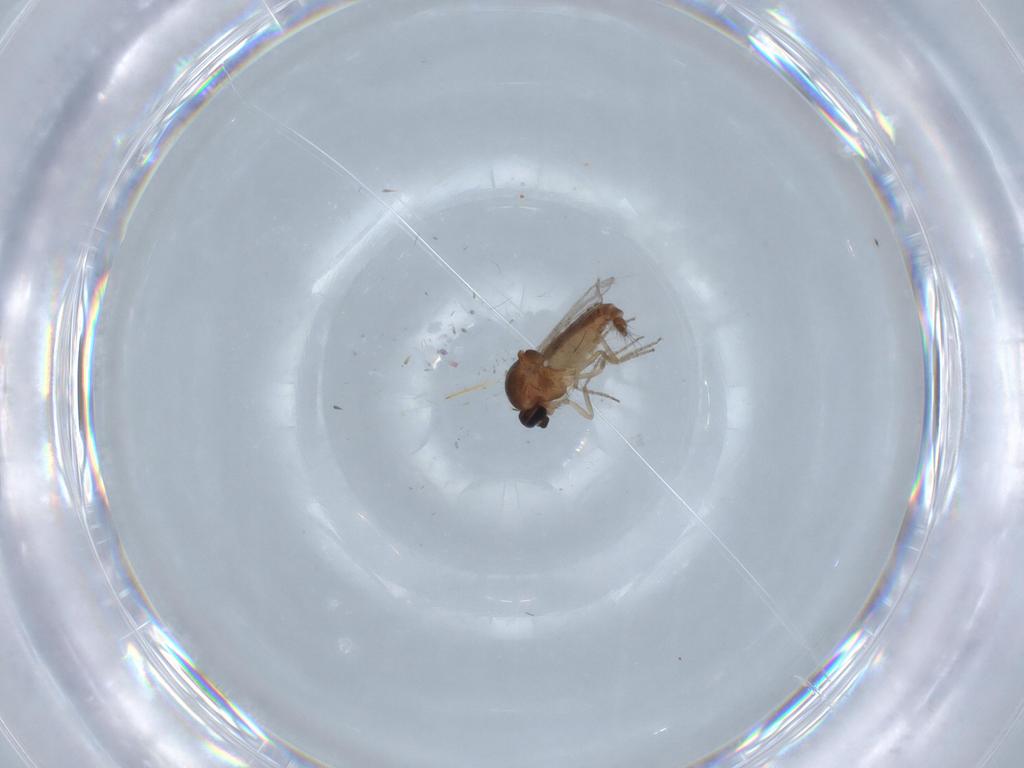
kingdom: Animalia
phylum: Arthropoda
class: Insecta
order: Diptera
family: Ceratopogonidae
